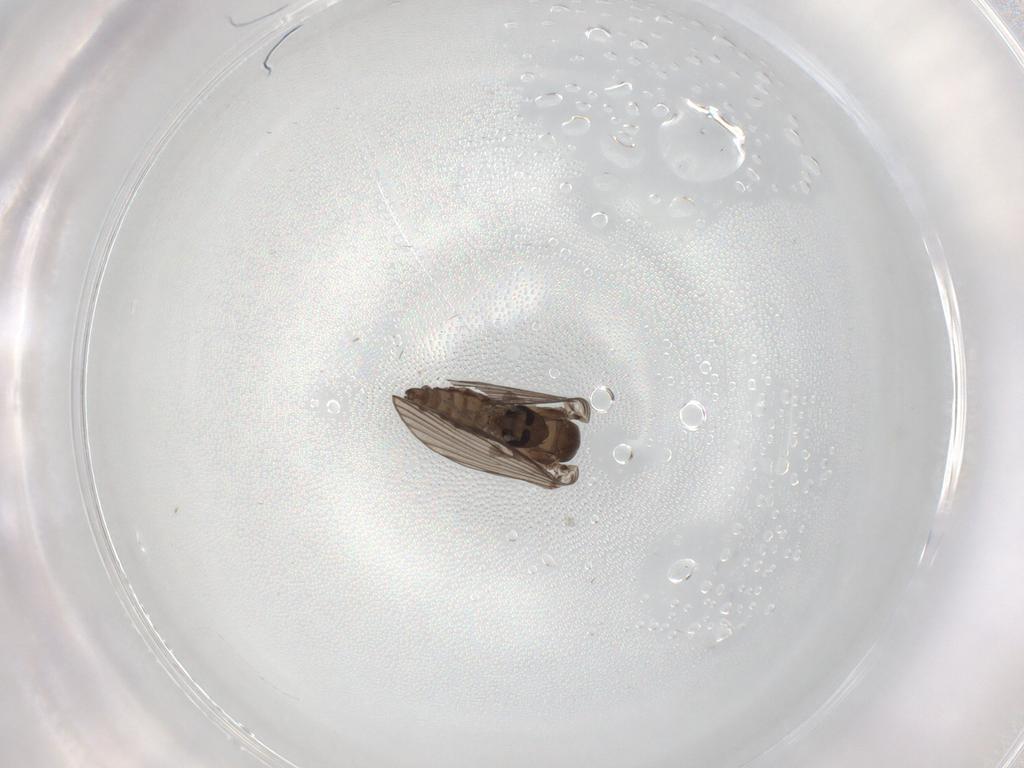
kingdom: Animalia
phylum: Arthropoda
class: Insecta
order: Diptera
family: Psychodidae
